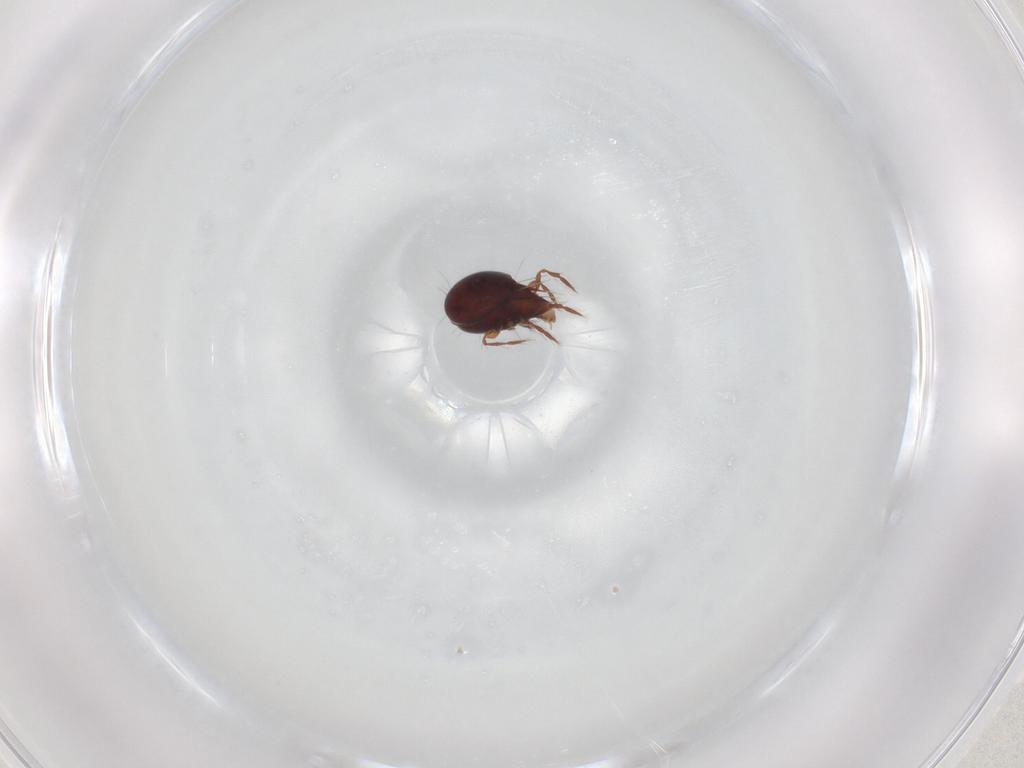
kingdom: Animalia
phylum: Arthropoda
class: Arachnida
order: Sarcoptiformes
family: Ceratoppiidae
